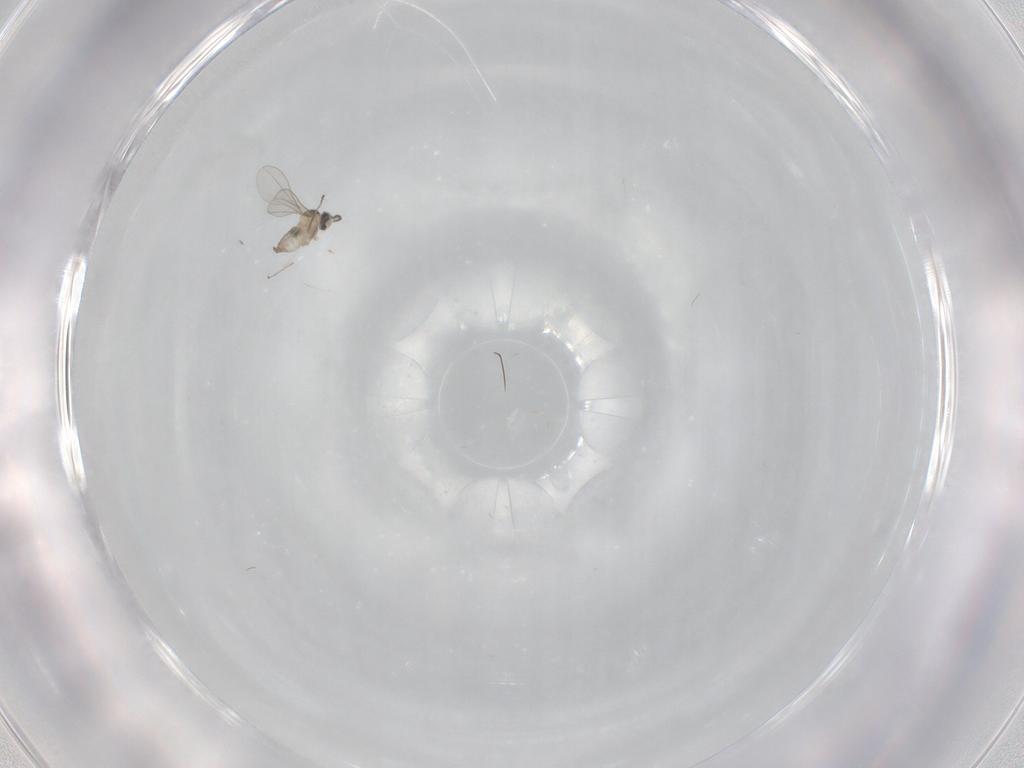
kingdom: Animalia
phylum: Arthropoda
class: Insecta
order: Diptera
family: Cecidomyiidae
